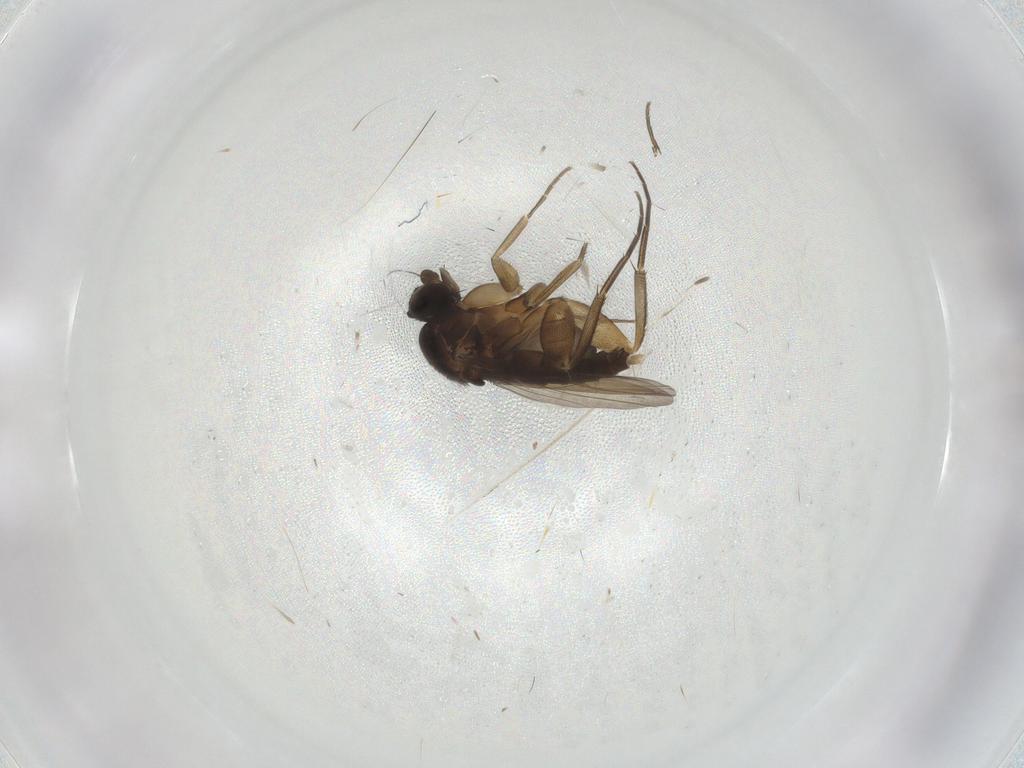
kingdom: Animalia
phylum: Arthropoda
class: Insecta
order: Diptera
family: Phoridae
